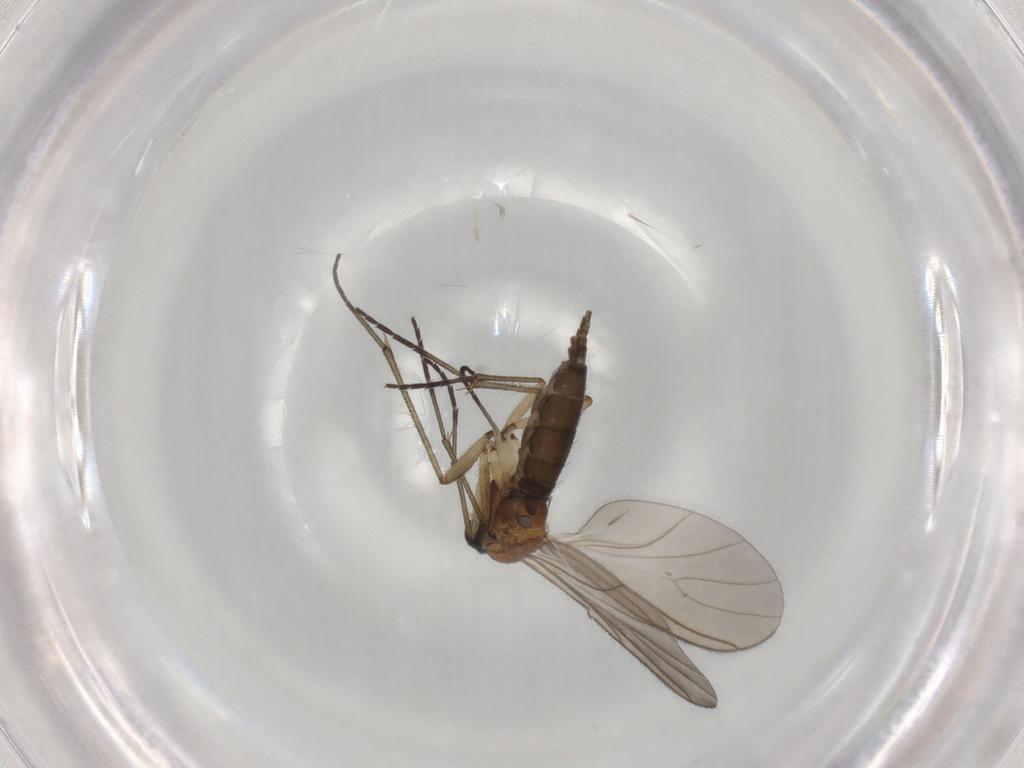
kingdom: Animalia
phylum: Arthropoda
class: Insecta
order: Diptera
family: Sciaridae
